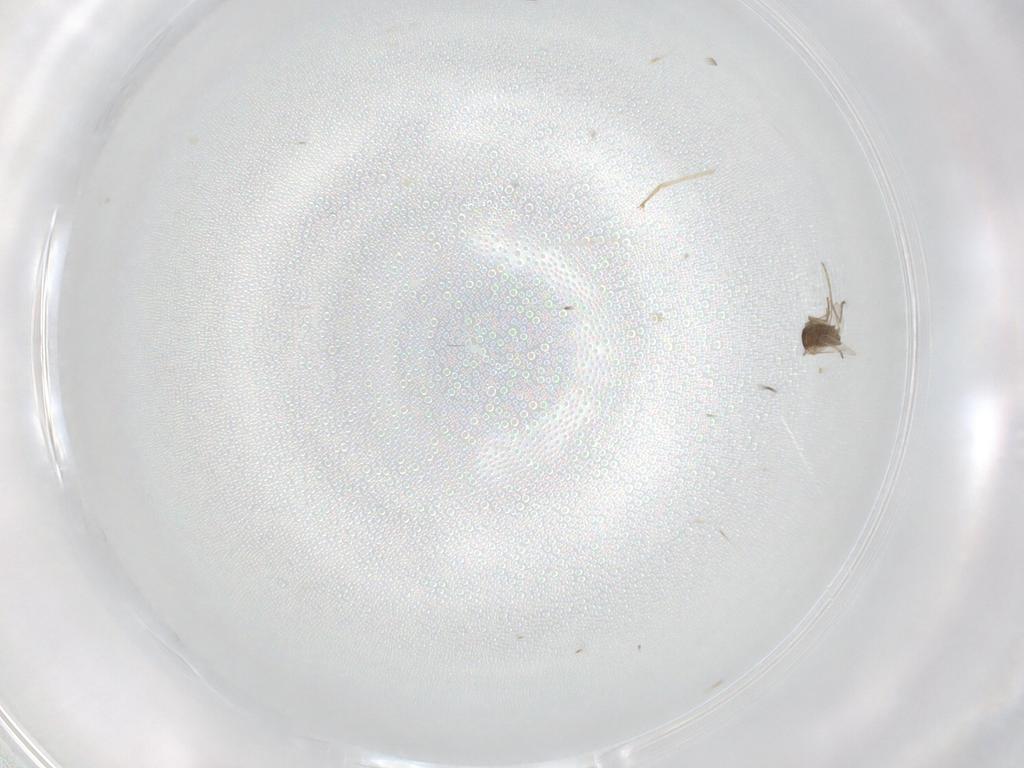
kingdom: Animalia
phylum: Arthropoda
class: Insecta
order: Diptera
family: Cecidomyiidae
